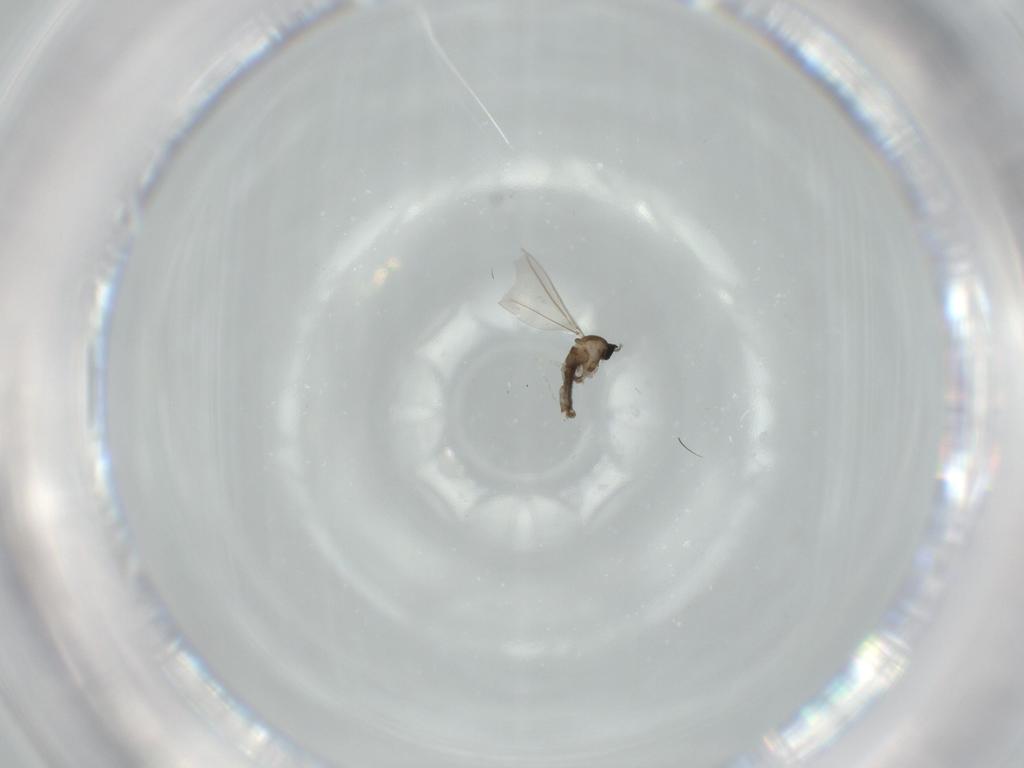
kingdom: Animalia
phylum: Arthropoda
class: Insecta
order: Diptera
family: Cecidomyiidae
